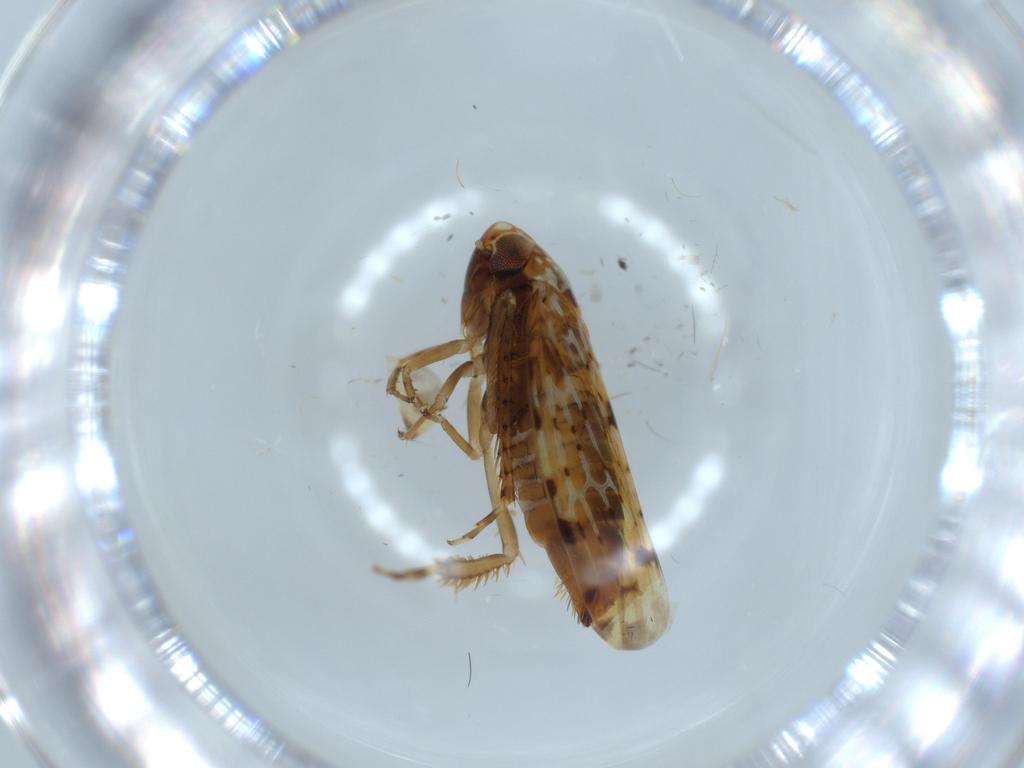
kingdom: Animalia
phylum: Arthropoda
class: Insecta
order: Hemiptera
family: Cicadellidae
